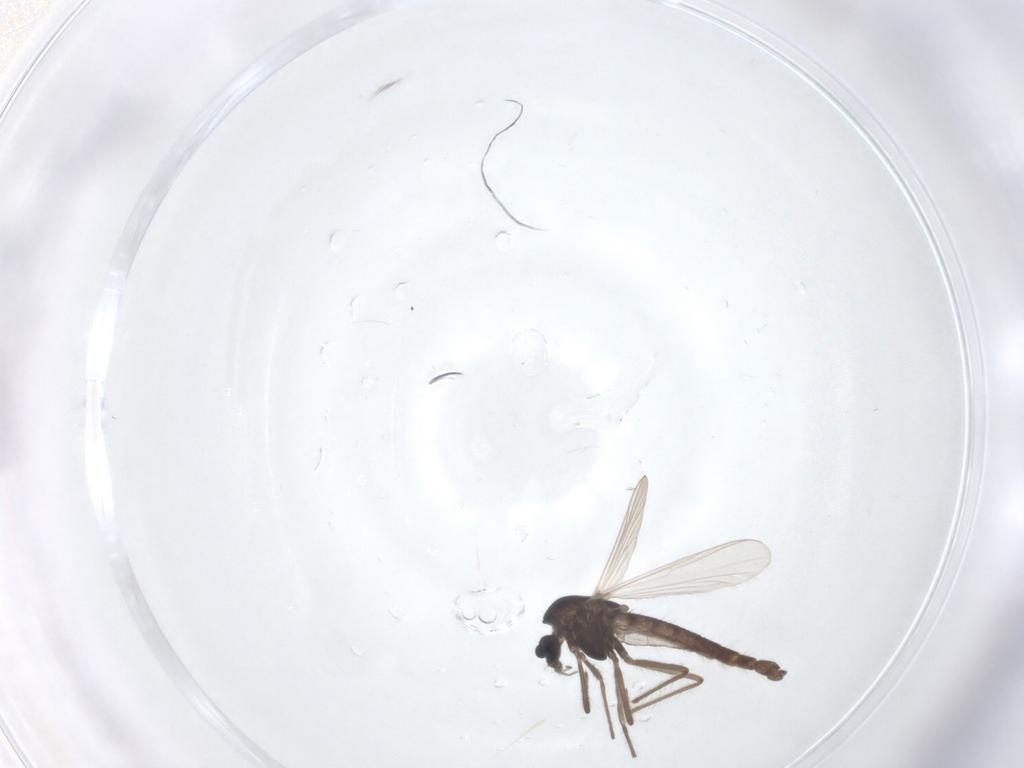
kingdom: Animalia
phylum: Arthropoda
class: Insecta
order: Diptera
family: Chironomidae
